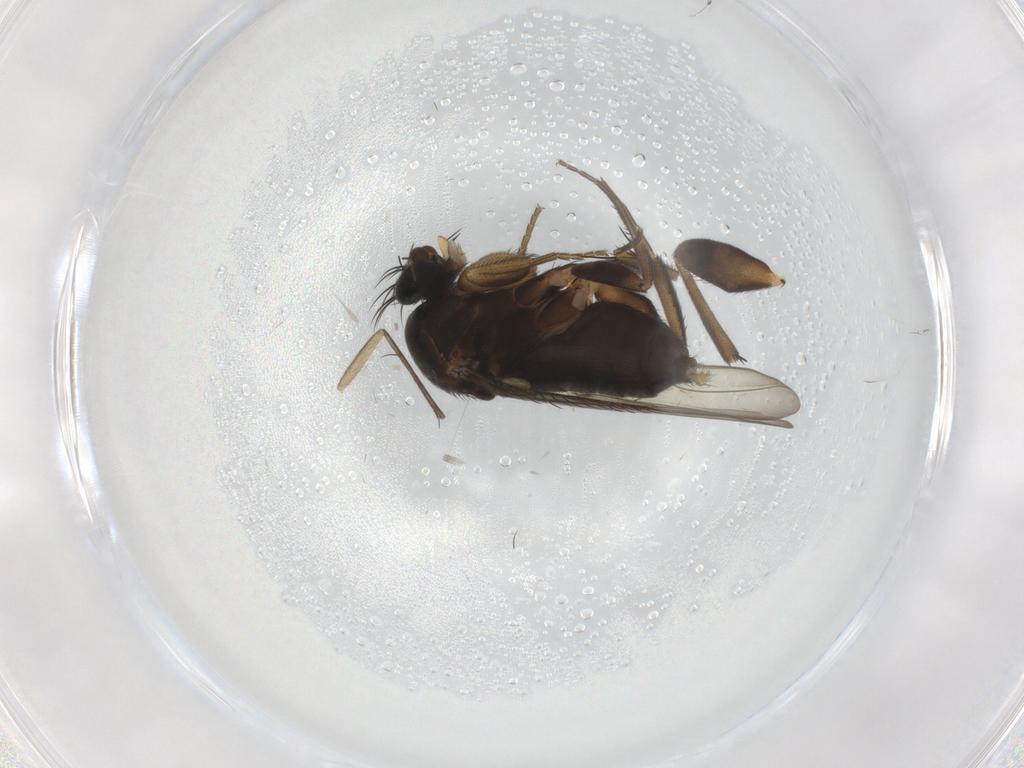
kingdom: Animalia
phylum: Arthropoda
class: Insecta
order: Diptera
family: Phoridae
